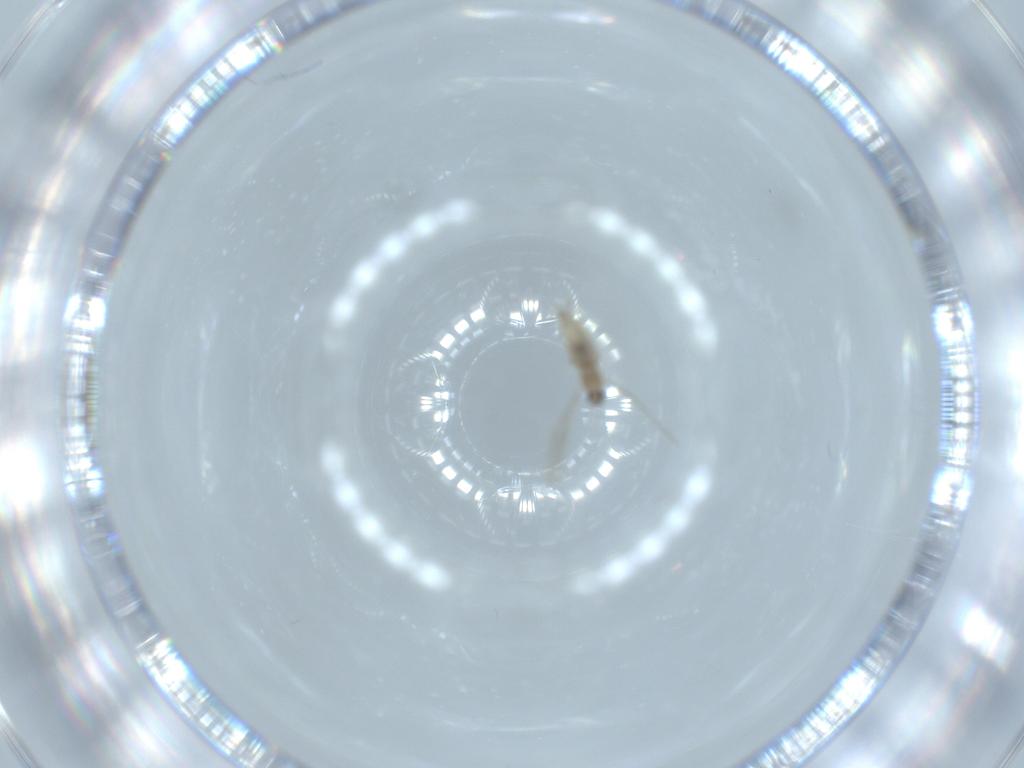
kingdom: Animalia
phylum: Arthropoda
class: Insecta
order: Diptera
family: Cecidomyiidae
